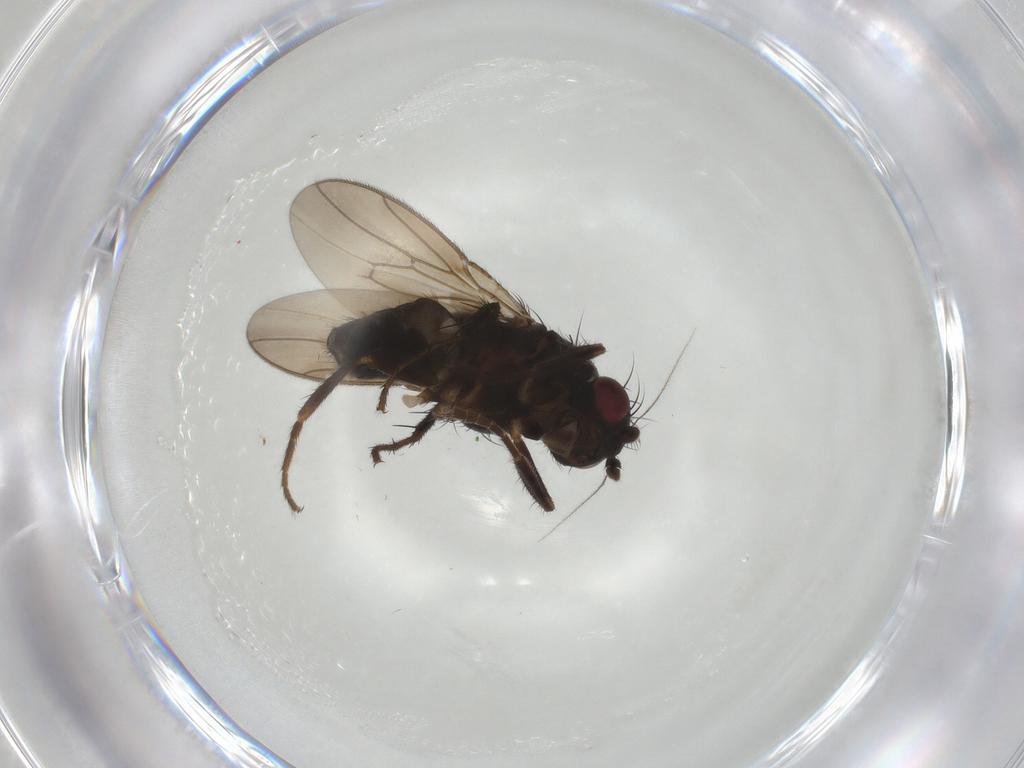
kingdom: Animalia
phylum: Arthropoda
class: Insecta
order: Diptera
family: Sphaeroceridae
